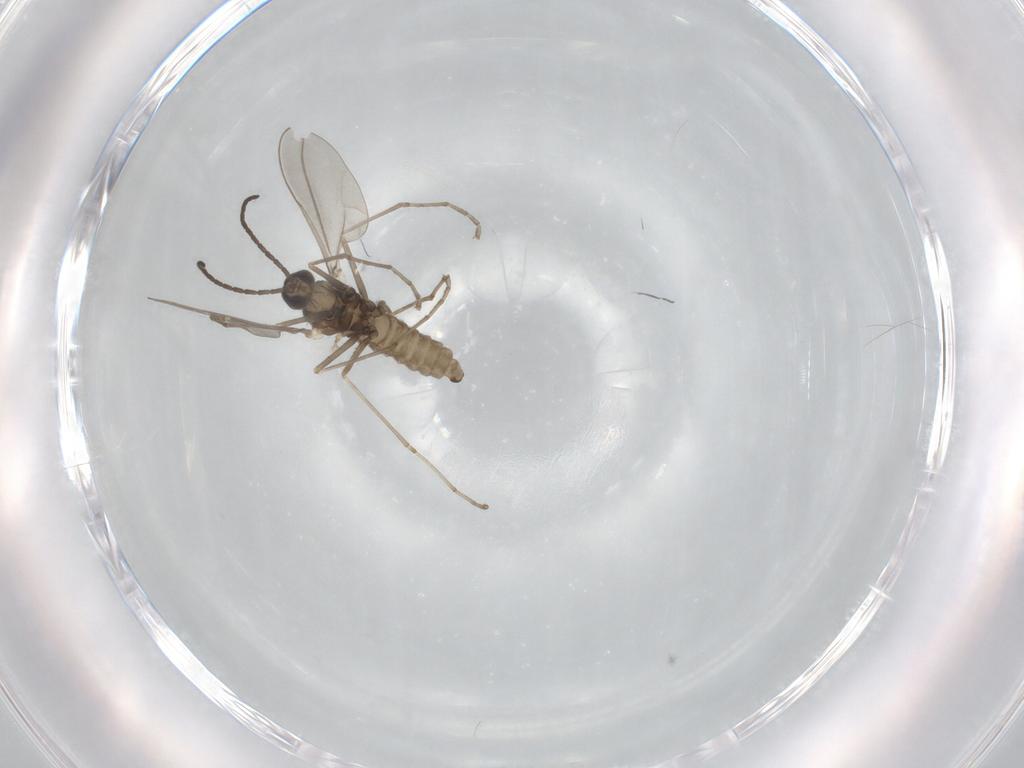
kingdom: Animalia
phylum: Arthropoda
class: Insecta
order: Diptera
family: Cecidomyiidae
